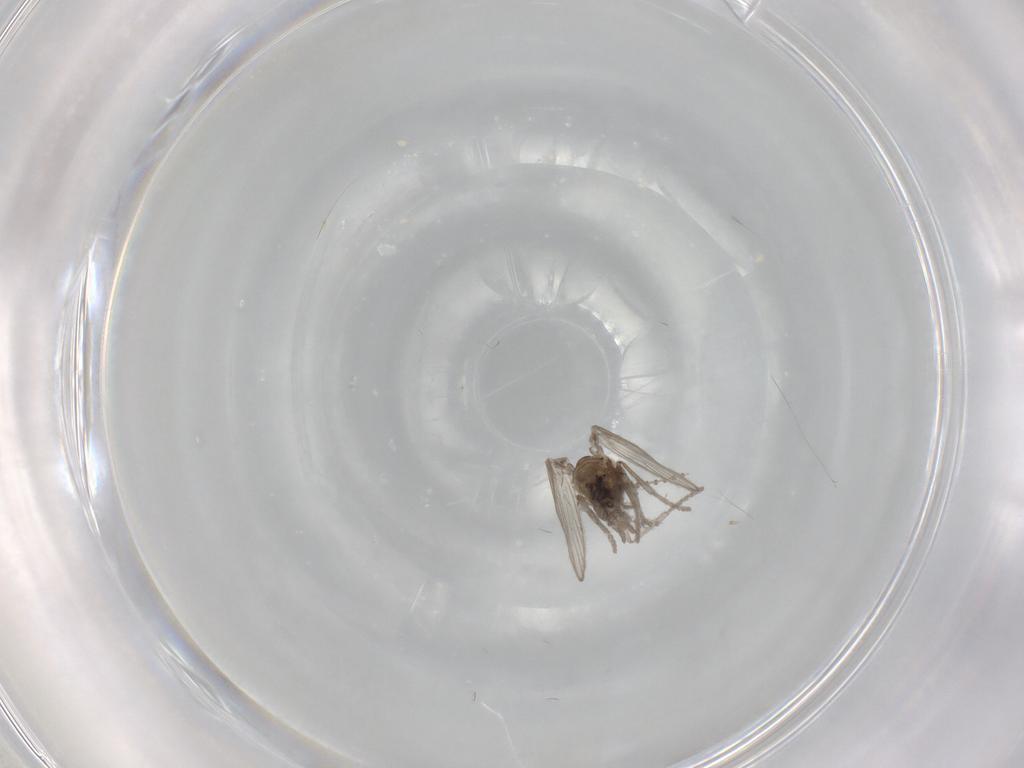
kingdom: Animalia
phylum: Arthropoda
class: Insecta
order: Diptera
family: Psychodidae
